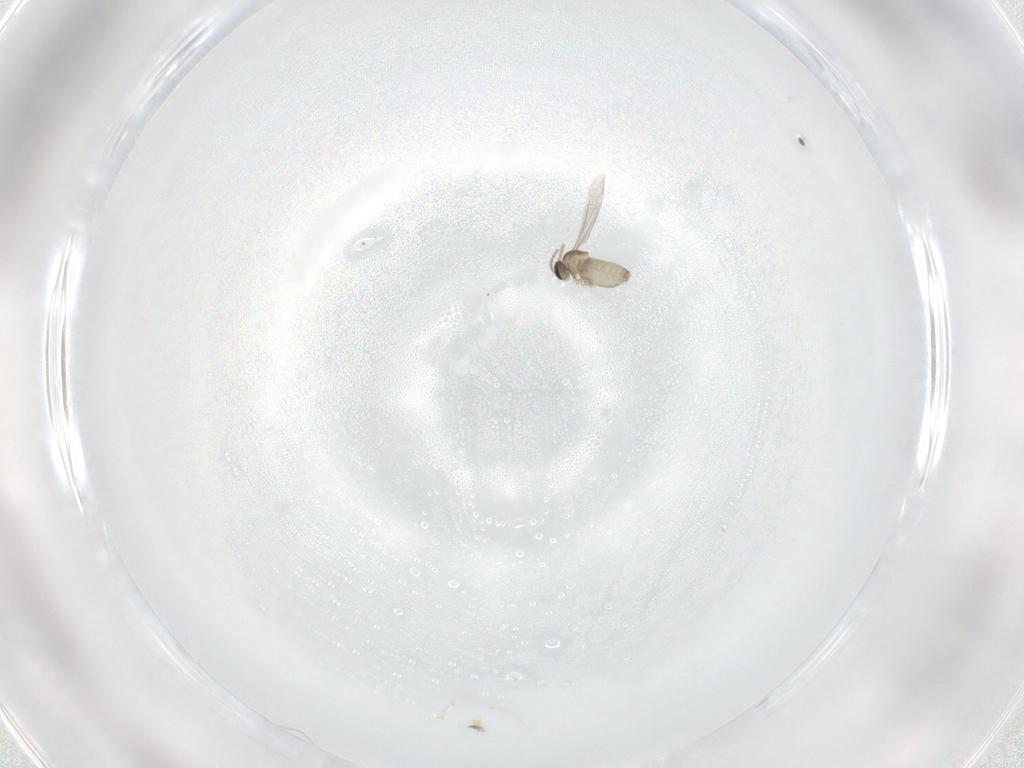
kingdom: Animalia
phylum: Arthropoda
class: Insecta
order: Diptera
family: Cecidomyiidae
